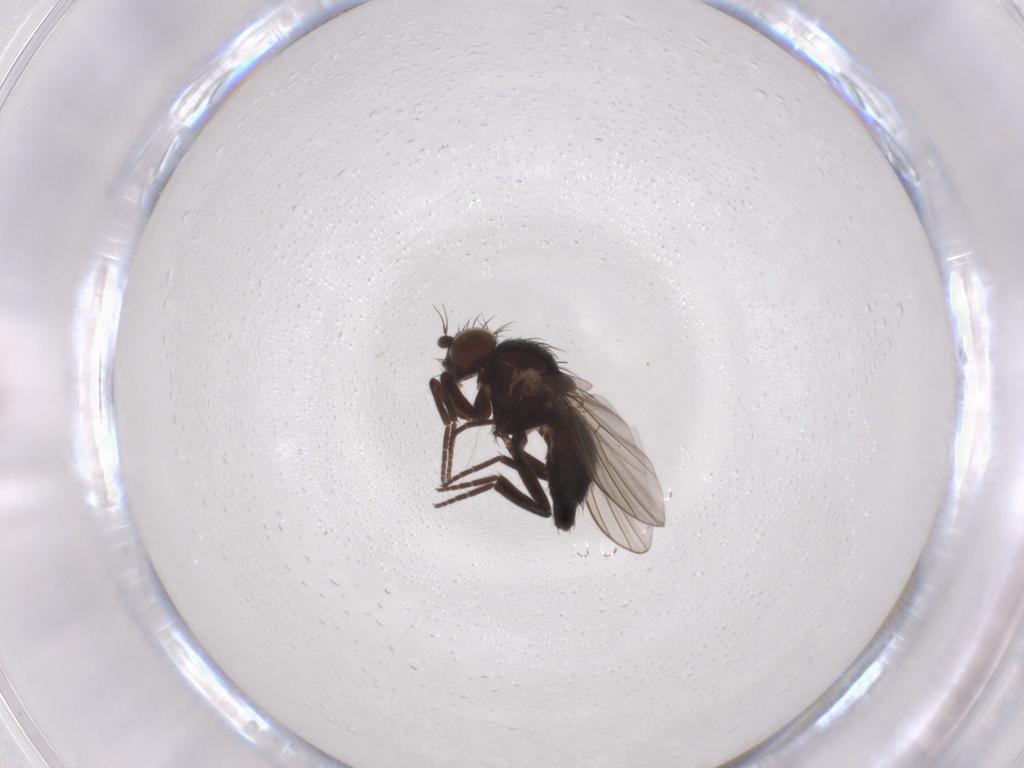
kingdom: Animalia
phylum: Arthropoda
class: Insecta
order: Diptera
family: Agromyzidae
